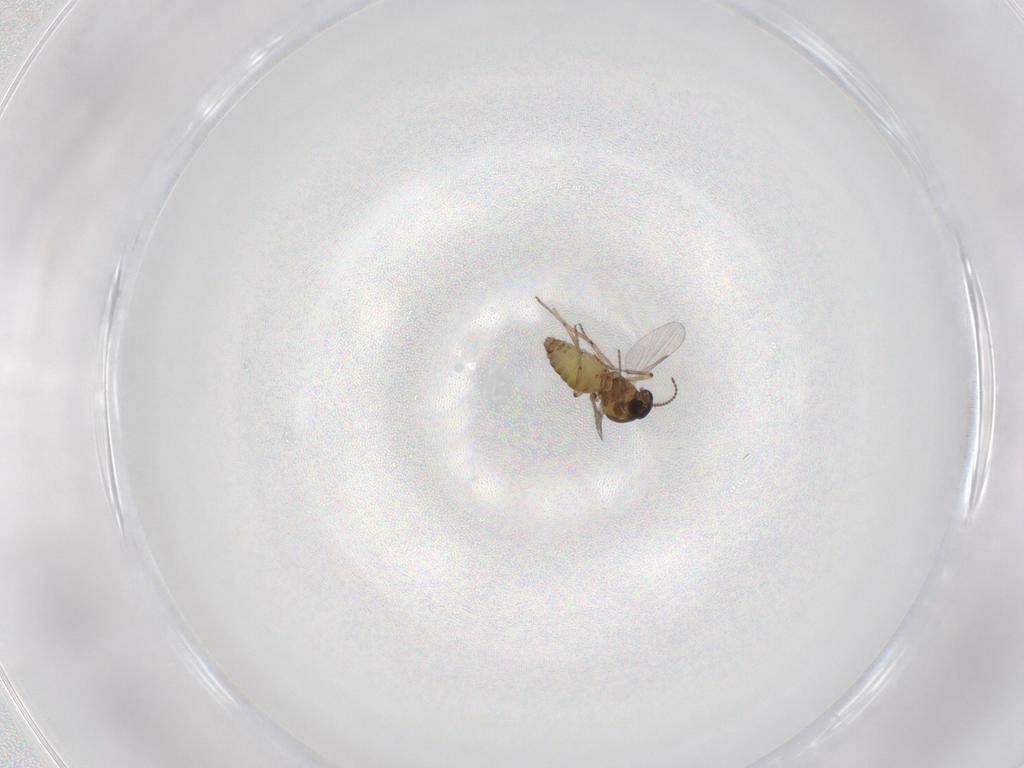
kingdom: Animalia
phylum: Arthropoda
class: Insecta
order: Diptera
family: Ceratopogonidae
